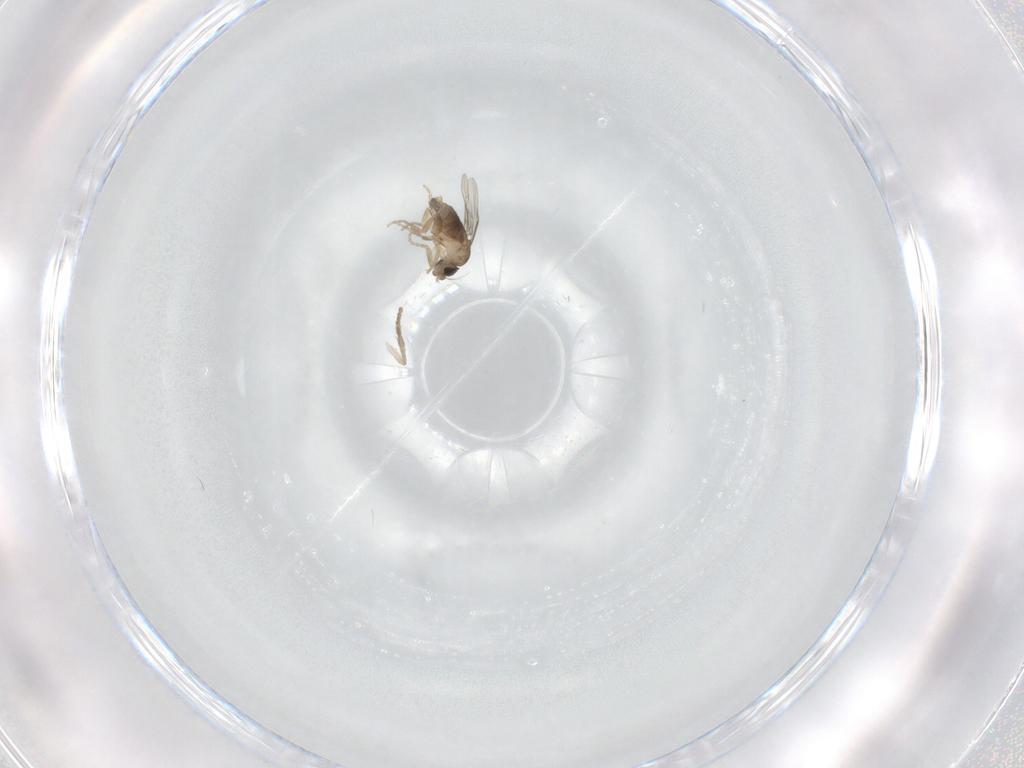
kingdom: Animalia
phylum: Arthropoda
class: Insecta
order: Diptera
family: Psychodidae
